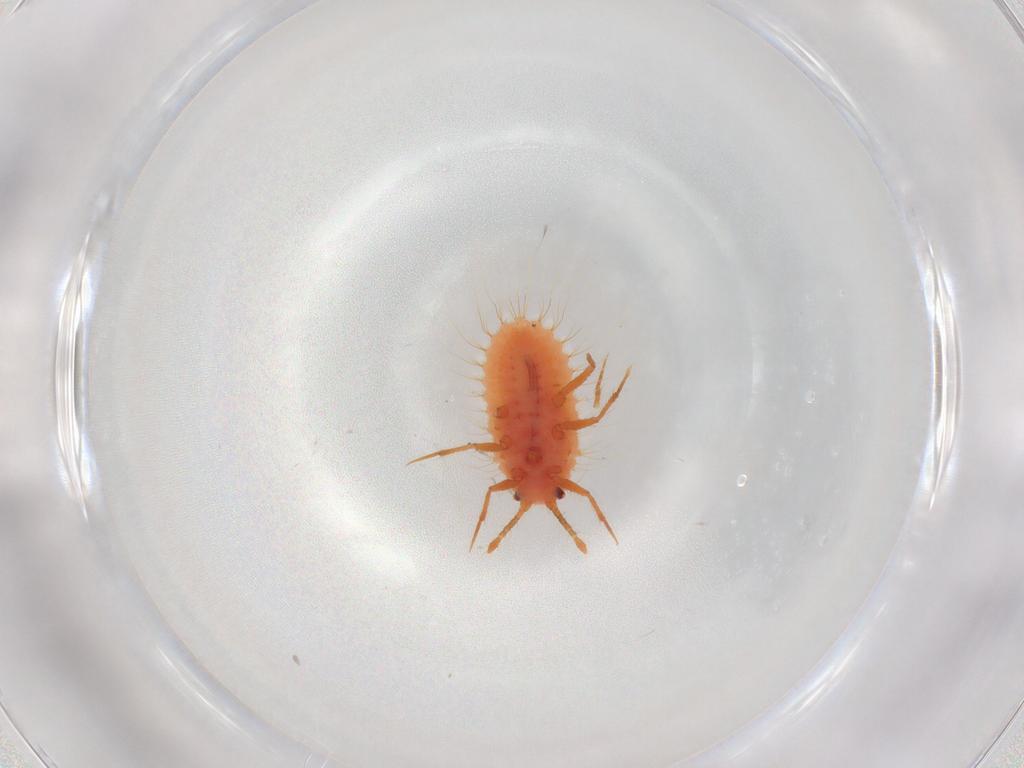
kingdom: Animalia
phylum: Arthropoda
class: Insecta
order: Hemiptera
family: Coccoidea_incertae_sedis
